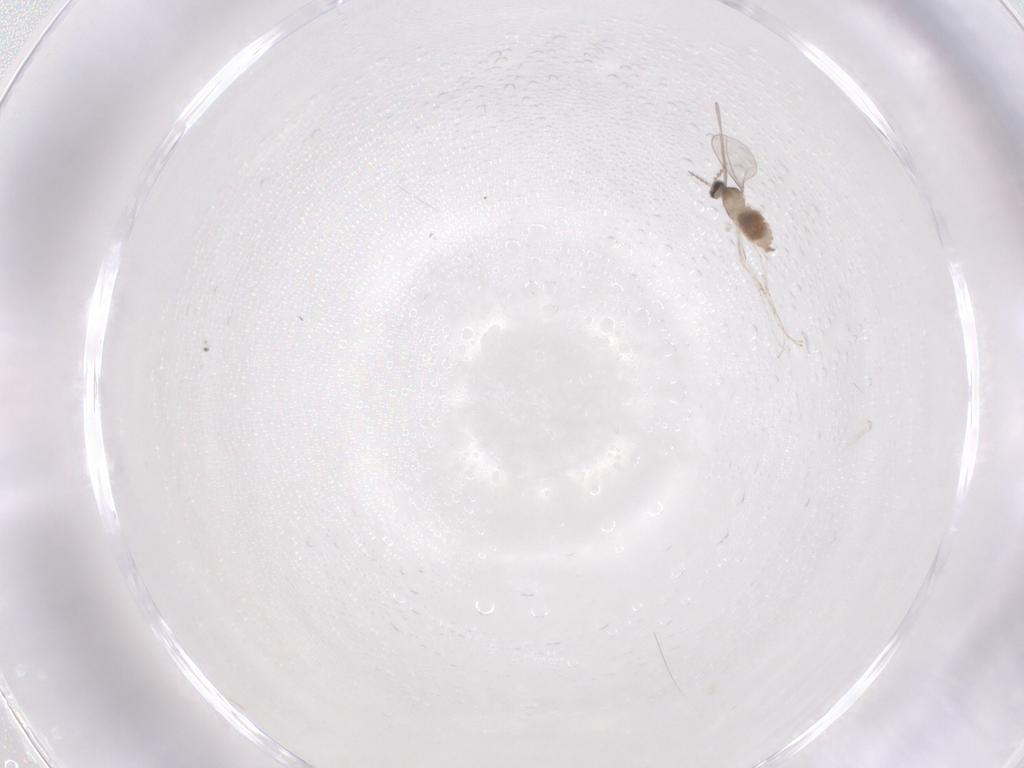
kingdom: Animalia
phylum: Arthropoda
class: Insecta
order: Diptera
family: Cecidomyiidae
